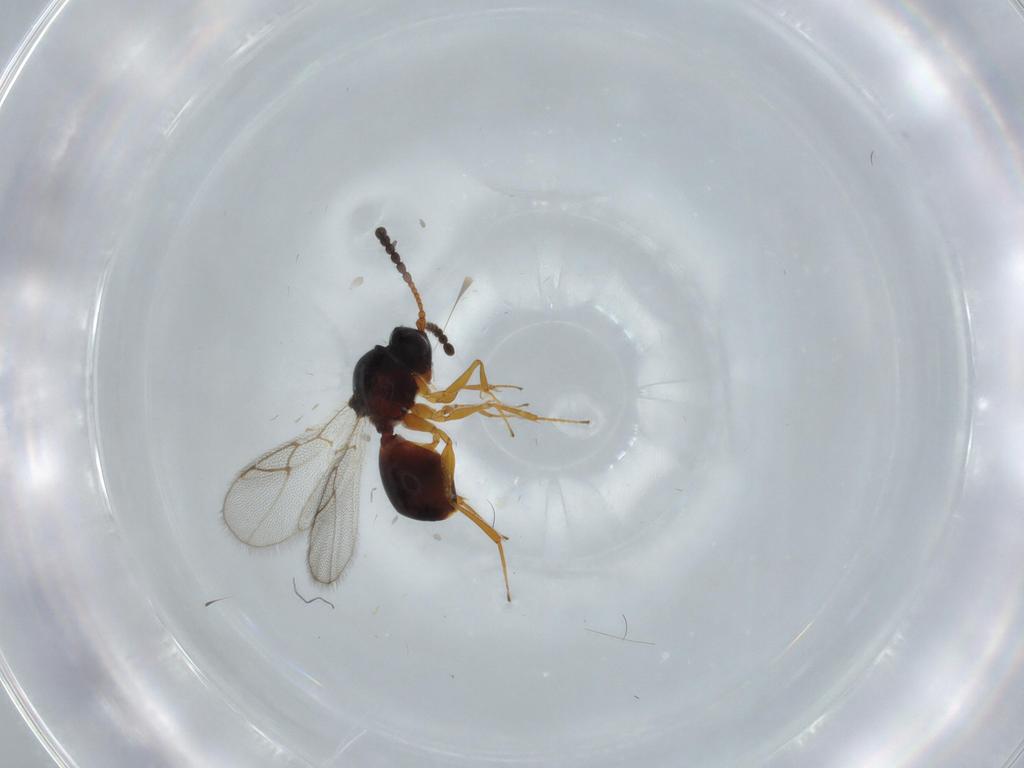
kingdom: Animalia
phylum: Arthropoda
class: Insecta
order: Hymenoptera
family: Figitidae
